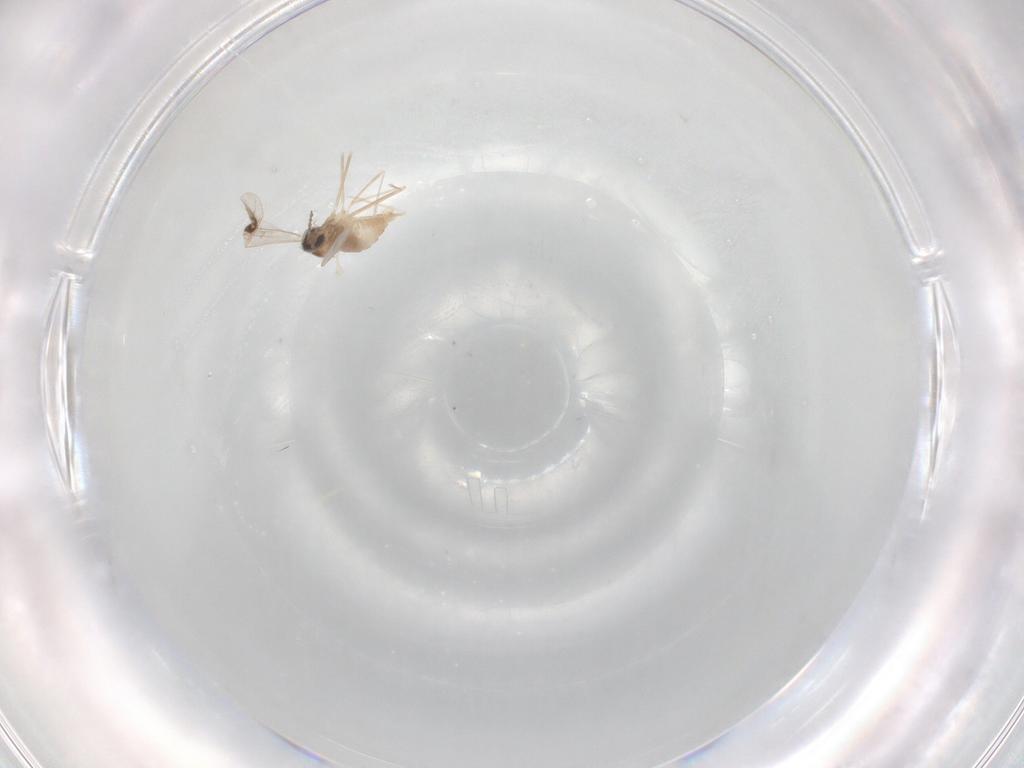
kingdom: Animalia
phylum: Arthropoda
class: Insecta
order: Diptera
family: Cecidomyiidae
